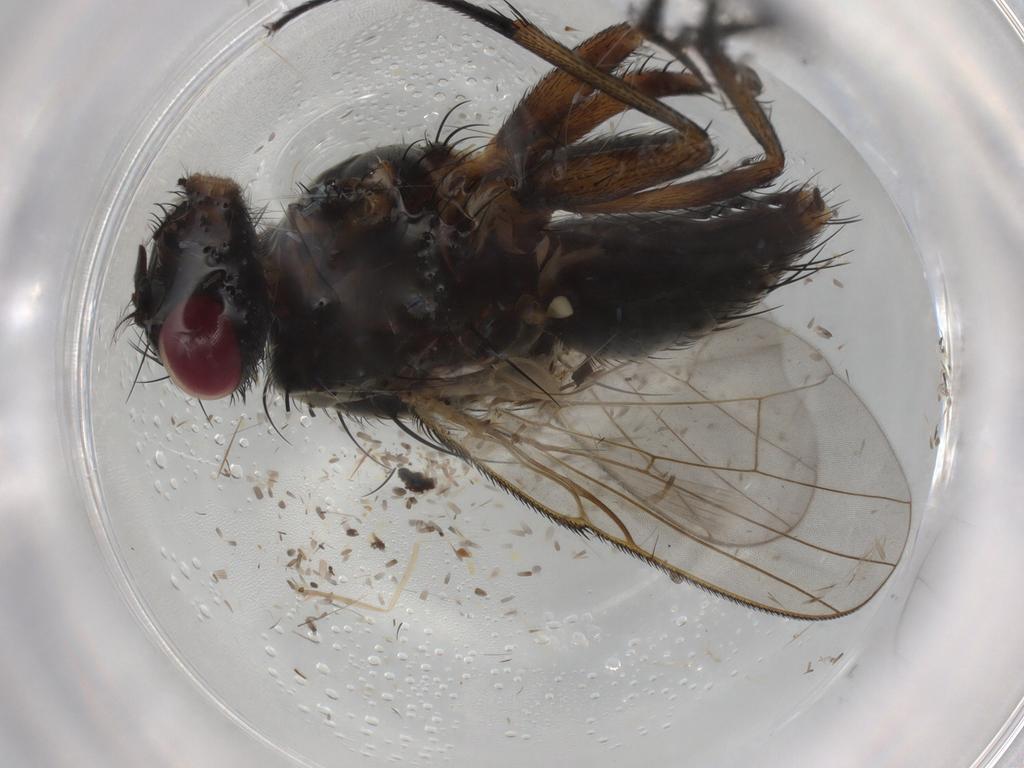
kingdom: Animalia
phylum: Arthropoda
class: Insecta
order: Diptera
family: Muscidae
